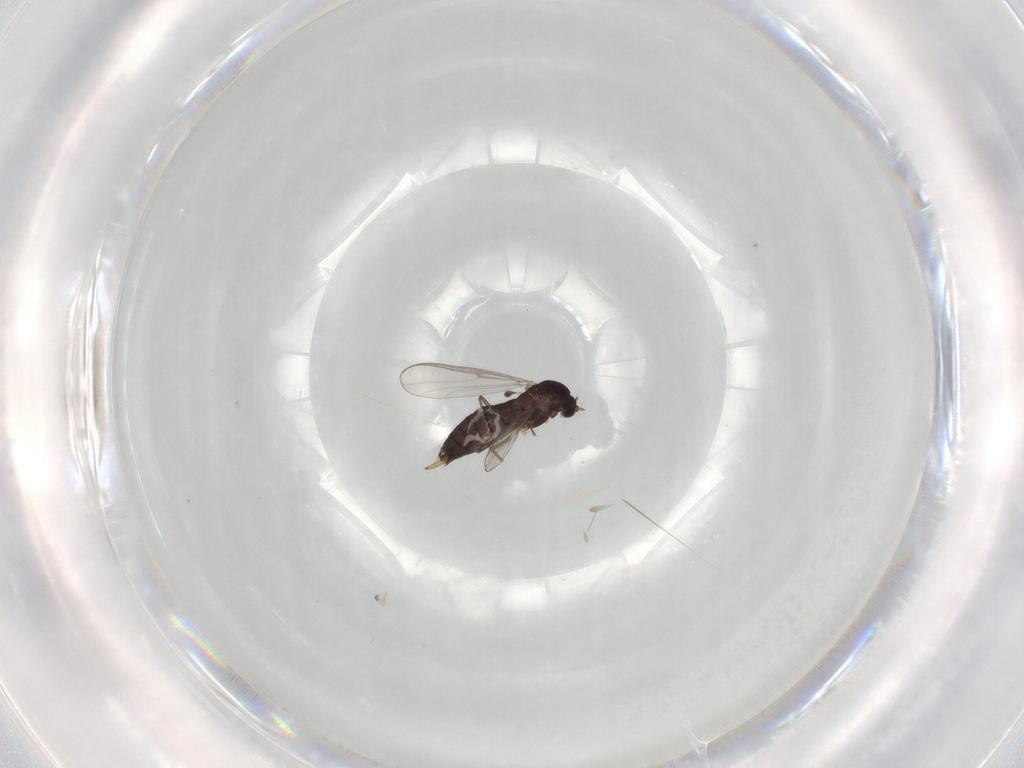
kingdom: Animalia
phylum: Arthropoda
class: Insecta
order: Diptera
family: Chironomidae
